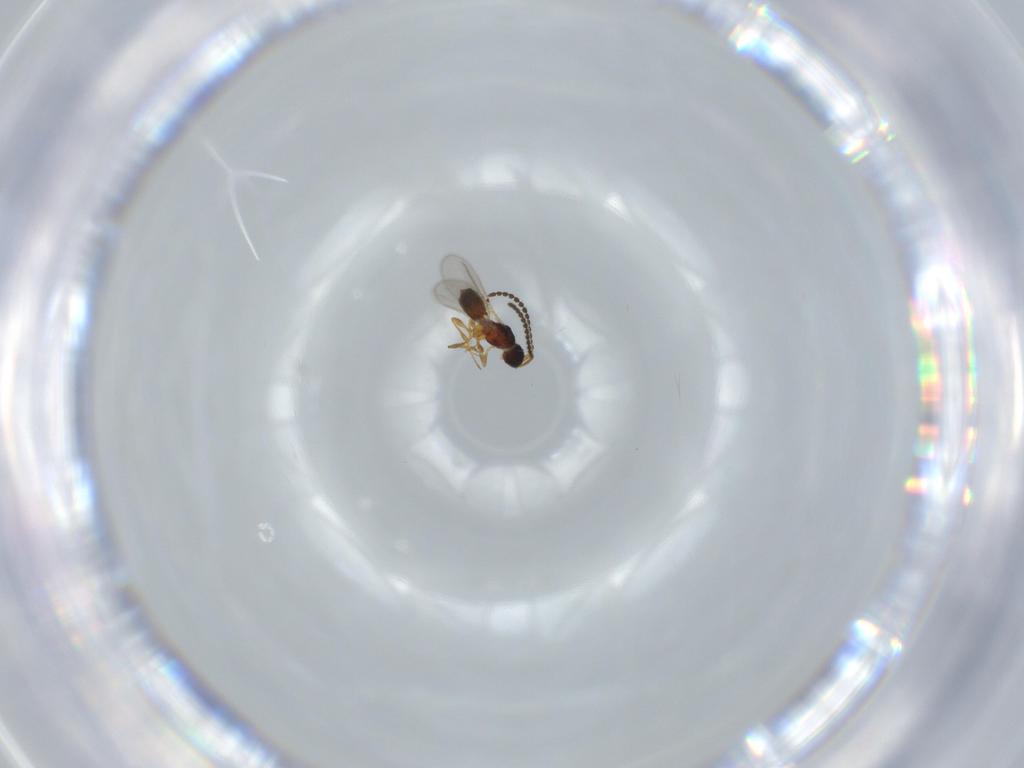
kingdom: Animalia
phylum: Arthropoda
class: Insecta
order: Hymenoptera
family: Diapriidae
